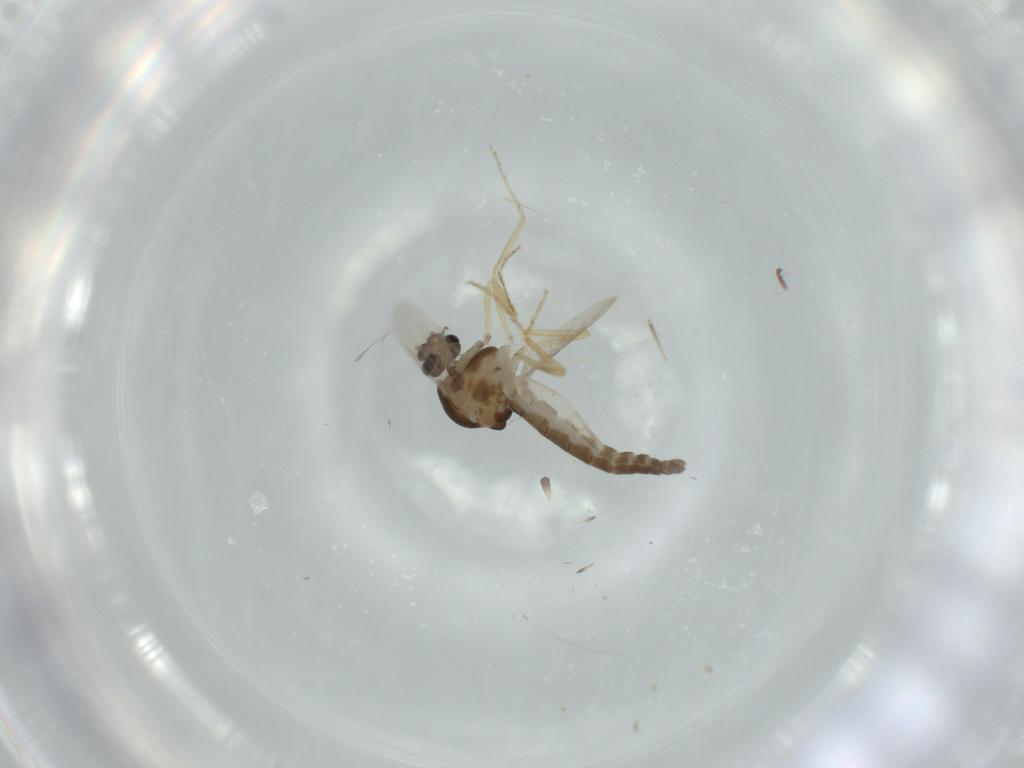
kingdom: Animalia
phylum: Arthropoda
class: Insecta
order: Diptera
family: Ceratopogonidae
